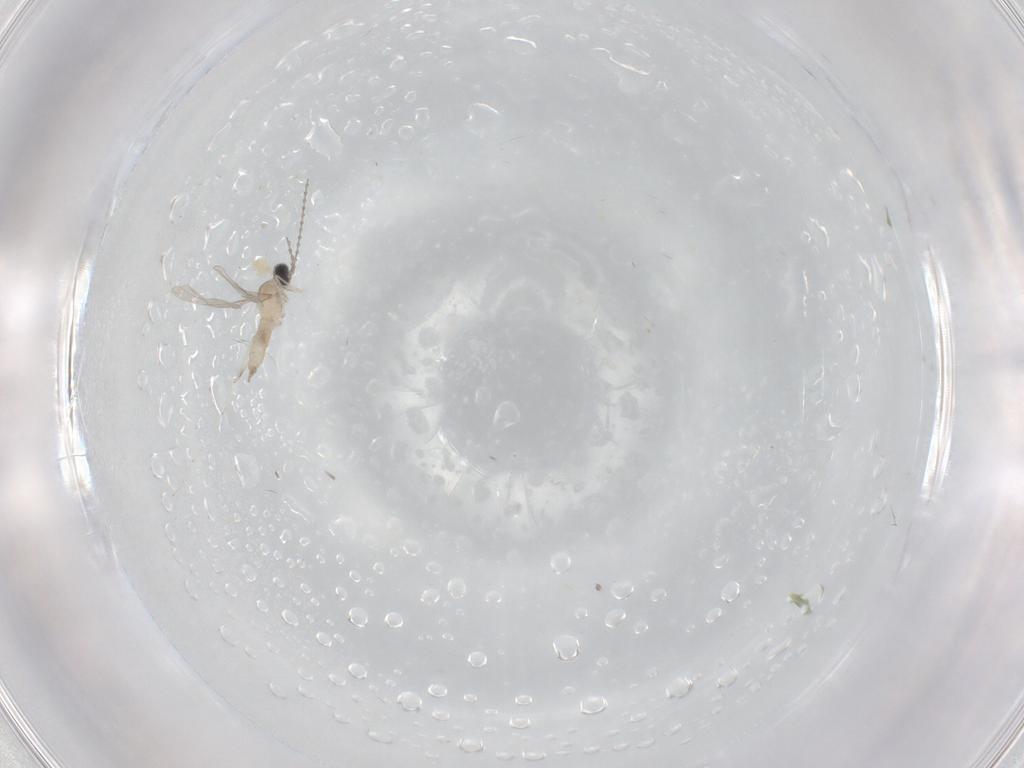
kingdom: Animalia
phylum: Arthropoda
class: Insecta
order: Diptera
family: Cecidomyiidae
